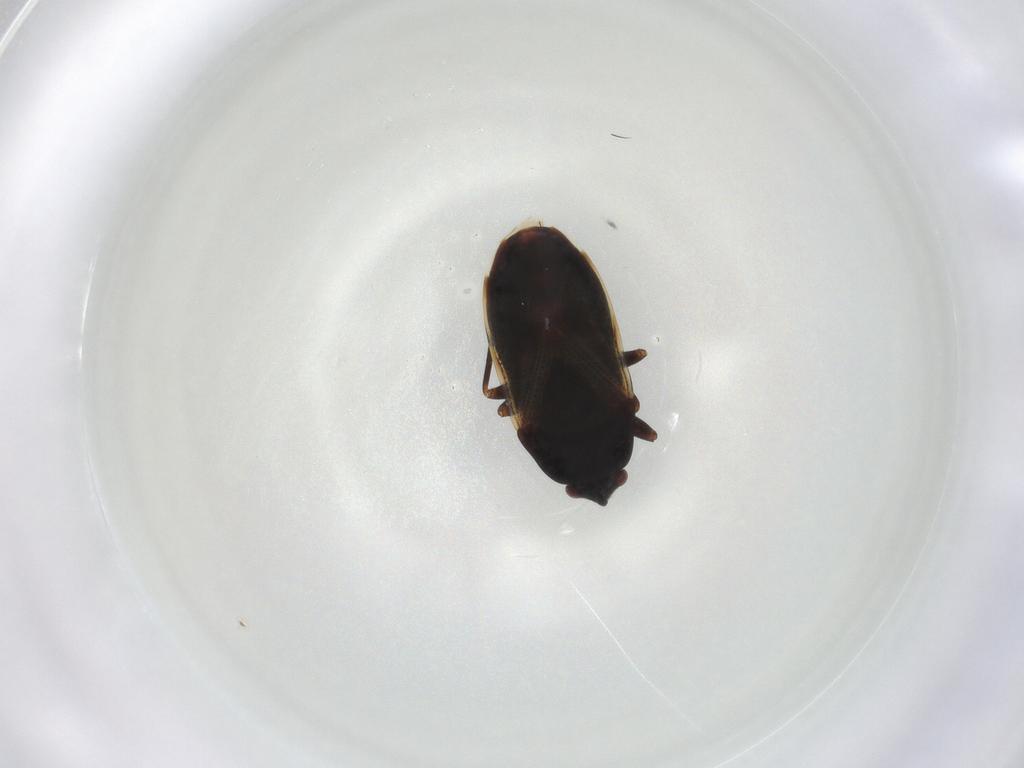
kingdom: Animalia
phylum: Arthropoda
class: Insecta
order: Hemiptera
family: Rhyparochromidae
